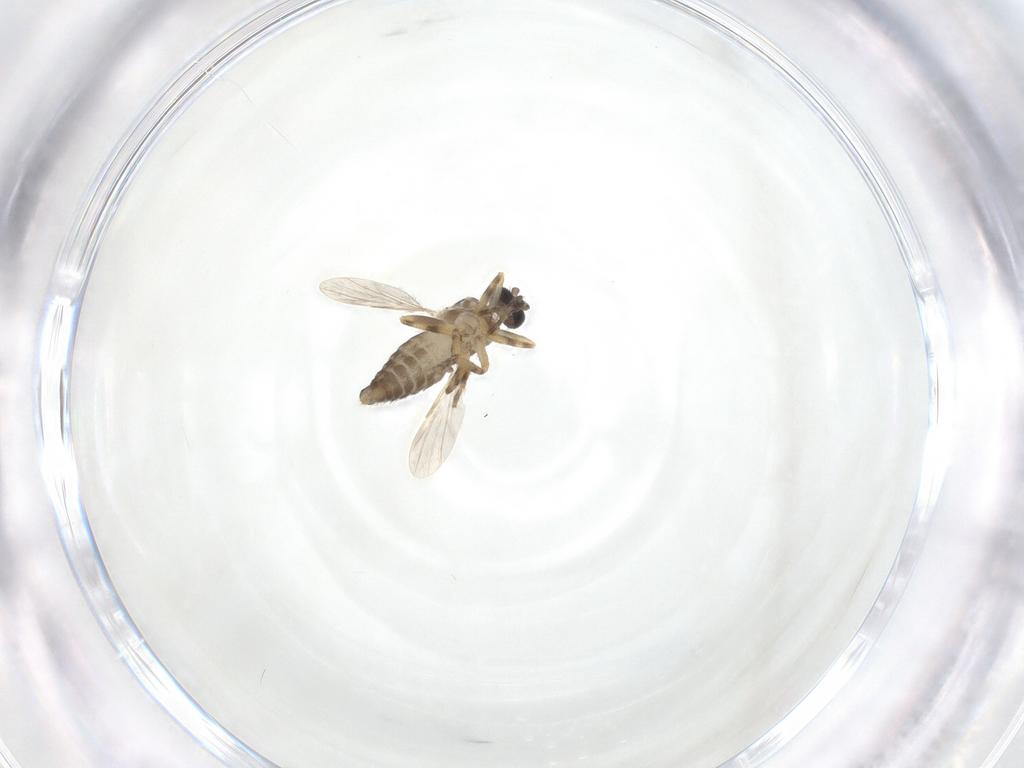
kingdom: Animalia
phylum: Arthropoda
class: Insecta
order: Diptera
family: Ceratopogonidae
